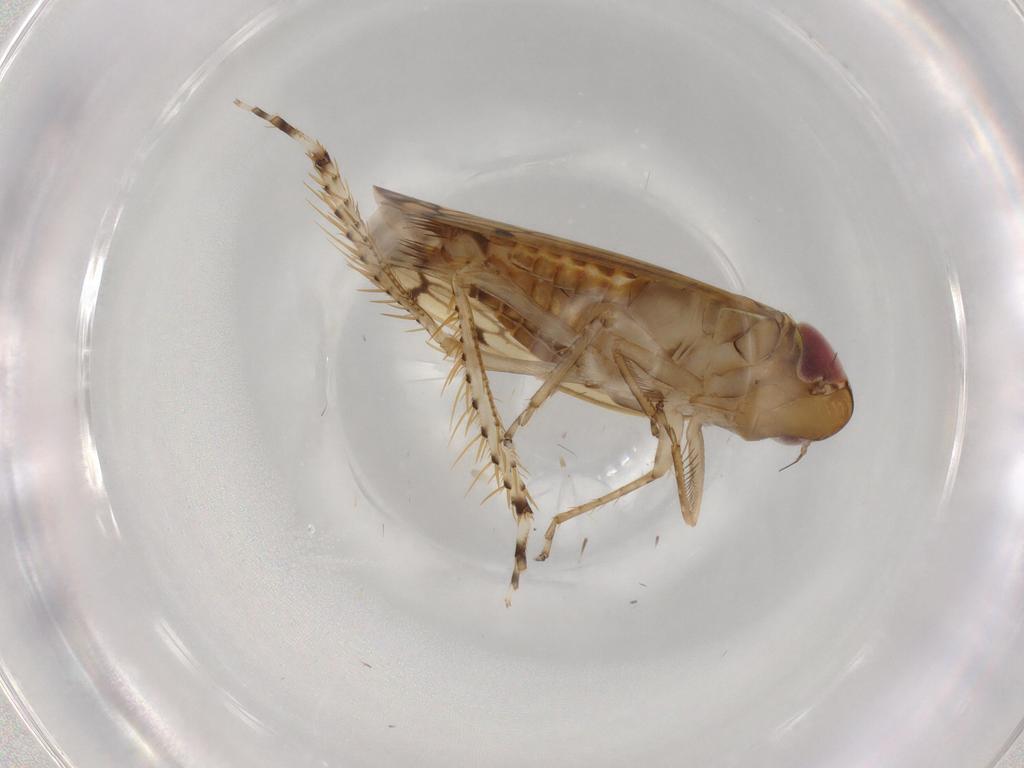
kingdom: Animalia
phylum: Arthropoda
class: Insecta
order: Hemiptera
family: Cicadellidae
